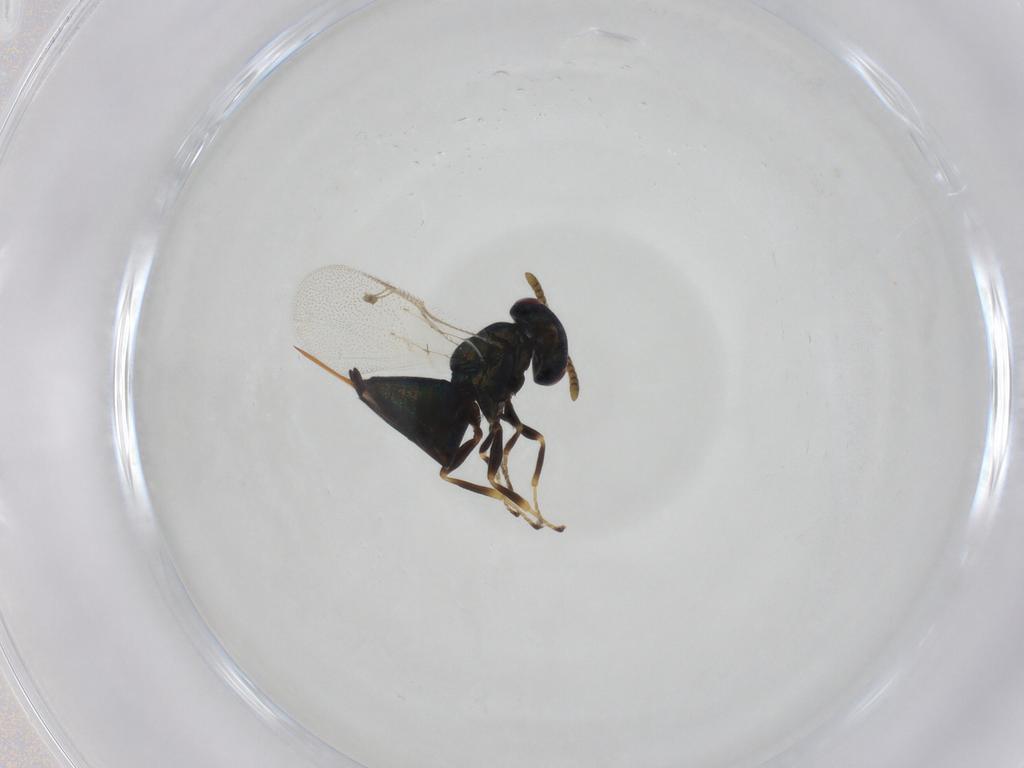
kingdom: Animalia
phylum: Arthropoda
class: Insecta
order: Hymenoptera
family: Pteromalidae
